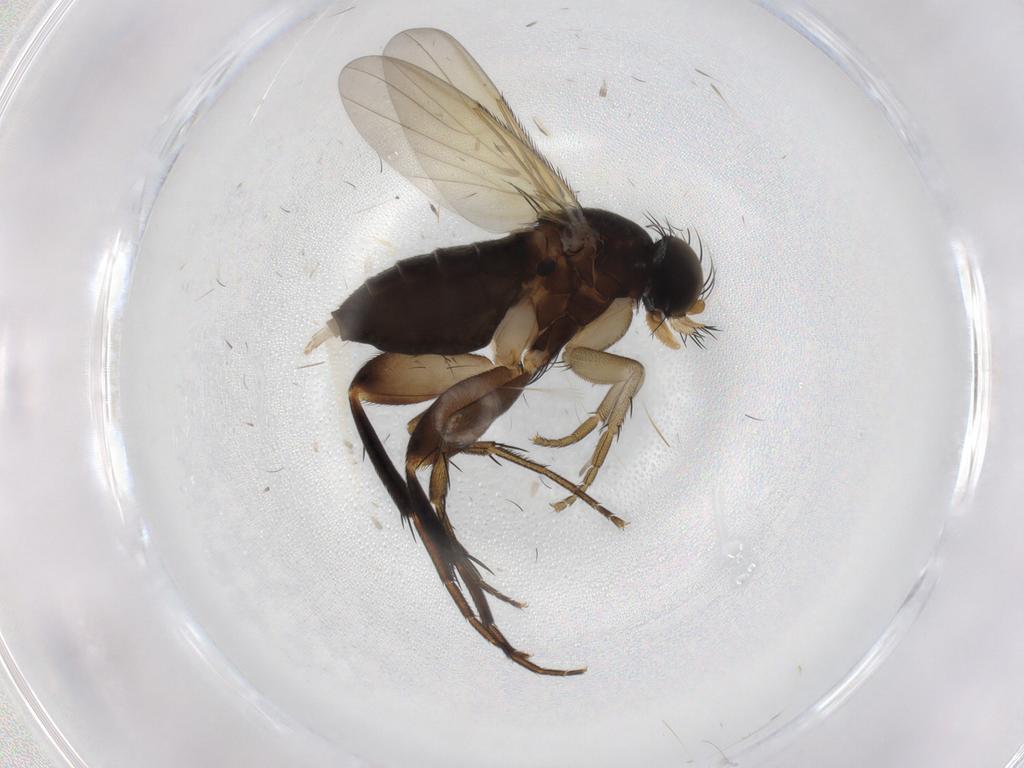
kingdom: Animalia
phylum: Arthropoda
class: Insecta
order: Diptera
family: Phoridae
